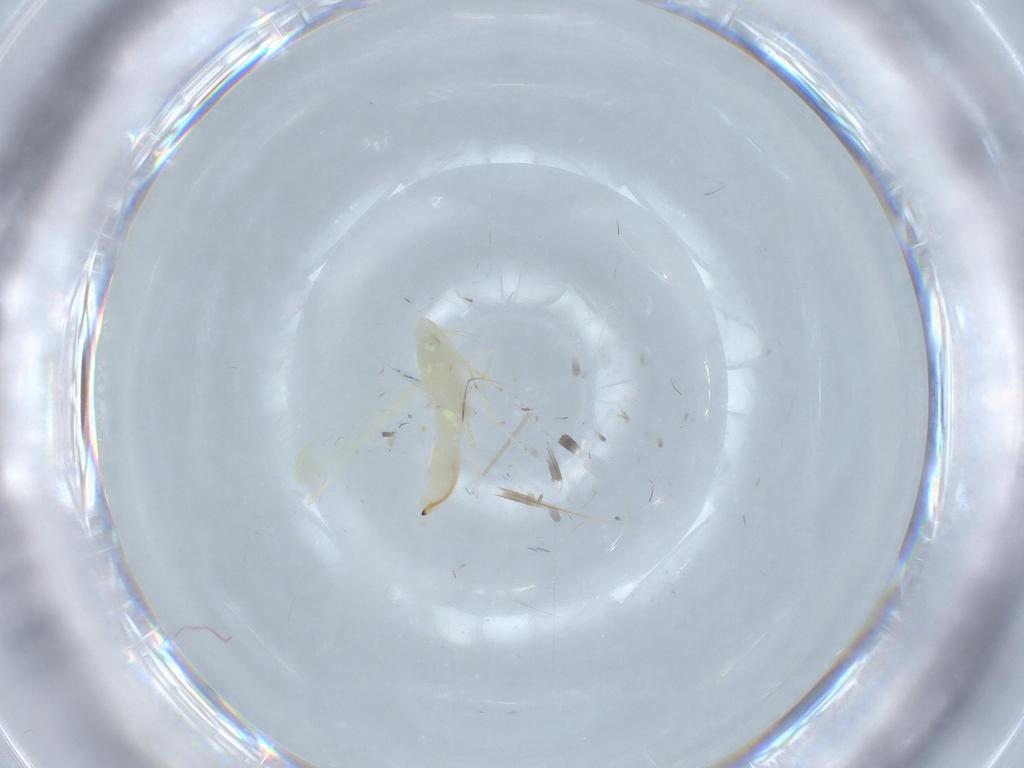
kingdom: Animalia
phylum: Arthropoda
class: Insecta
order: Hemiptera
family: Cicadellidae
